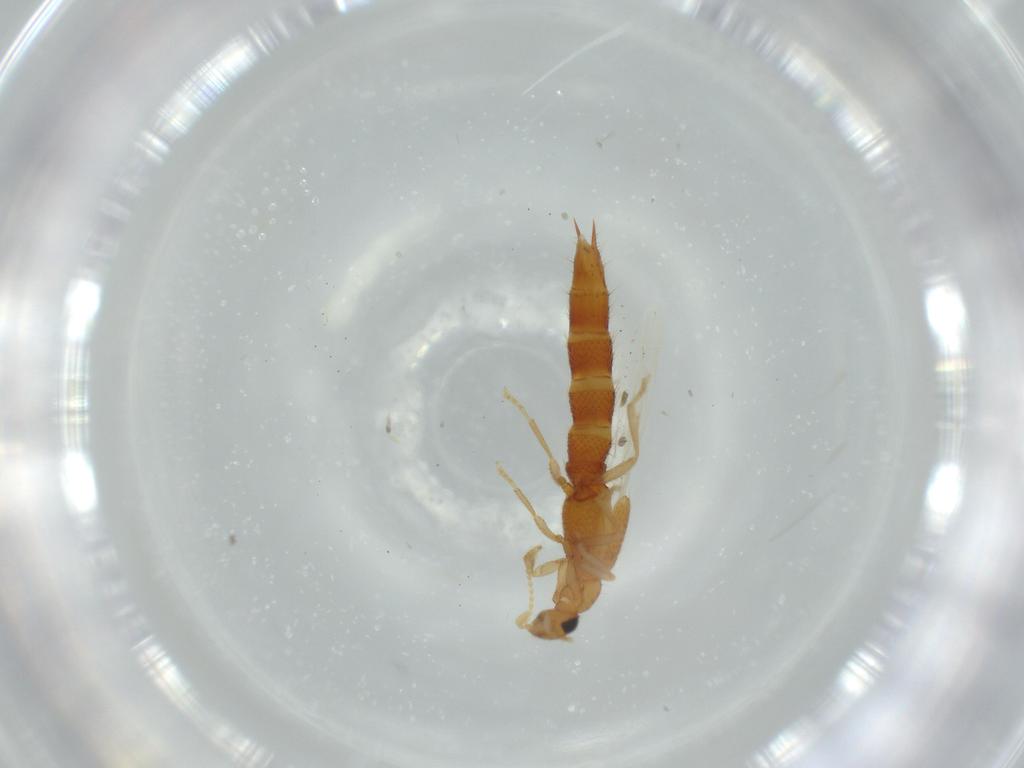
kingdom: Animalia
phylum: Arthropoda
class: Insecta
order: Coleoptera
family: Staphylinidae
